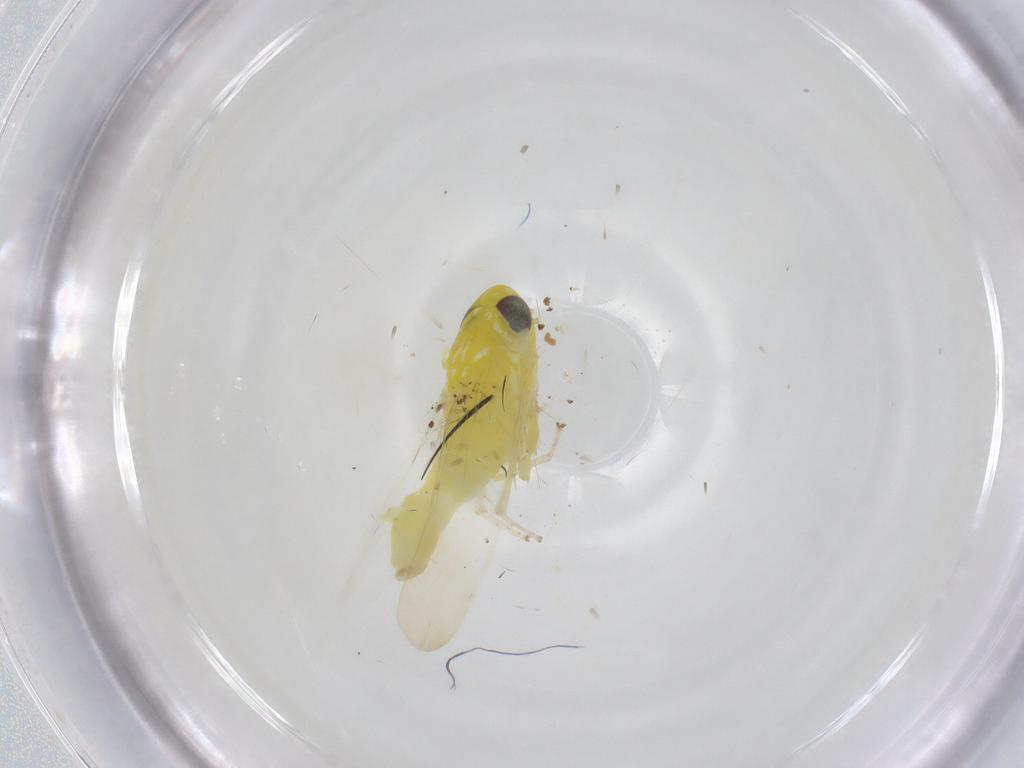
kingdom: Animalia
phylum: Arthropoda
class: Insecta
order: Hemiptera
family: Cicadellidae
